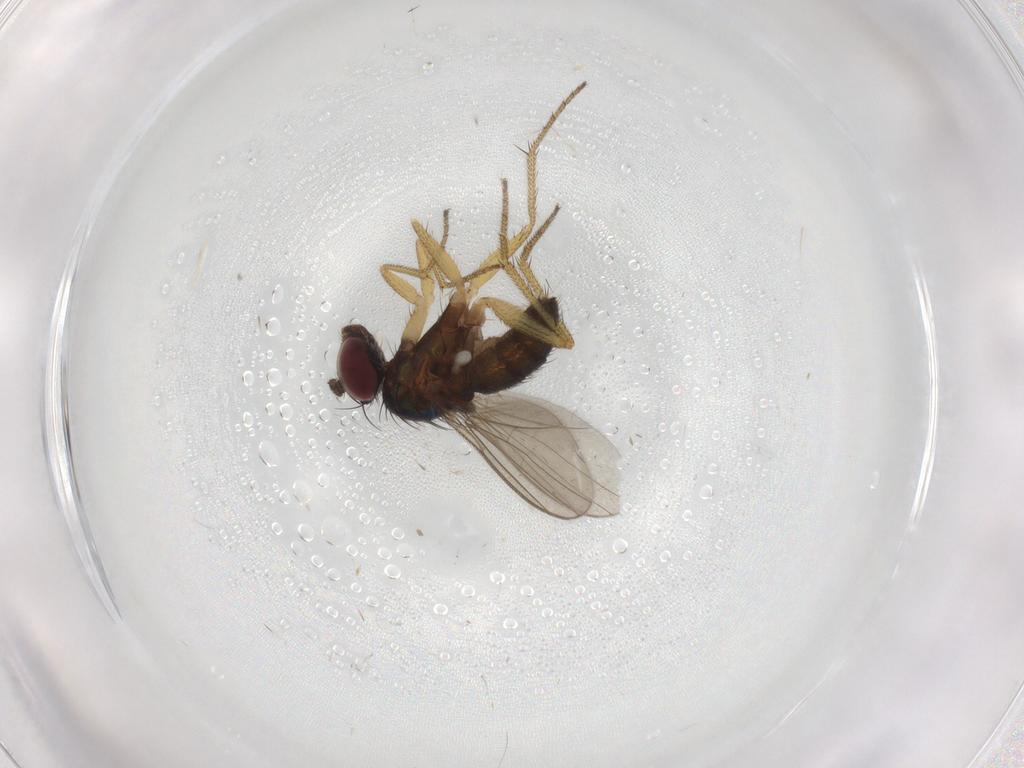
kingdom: Animalia
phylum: Arthropoda
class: Insecta
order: Diptera
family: Dolichopodidae
